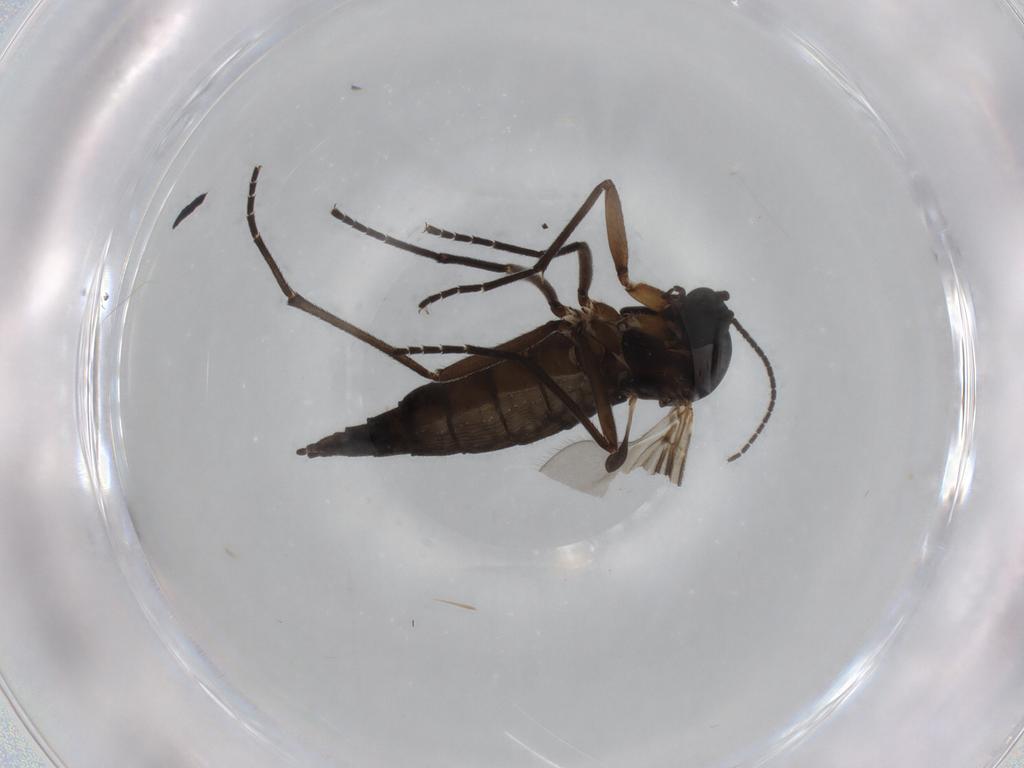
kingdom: Animalia
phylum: Arthropoda
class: Insecta
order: Diptera
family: Sciaridae
